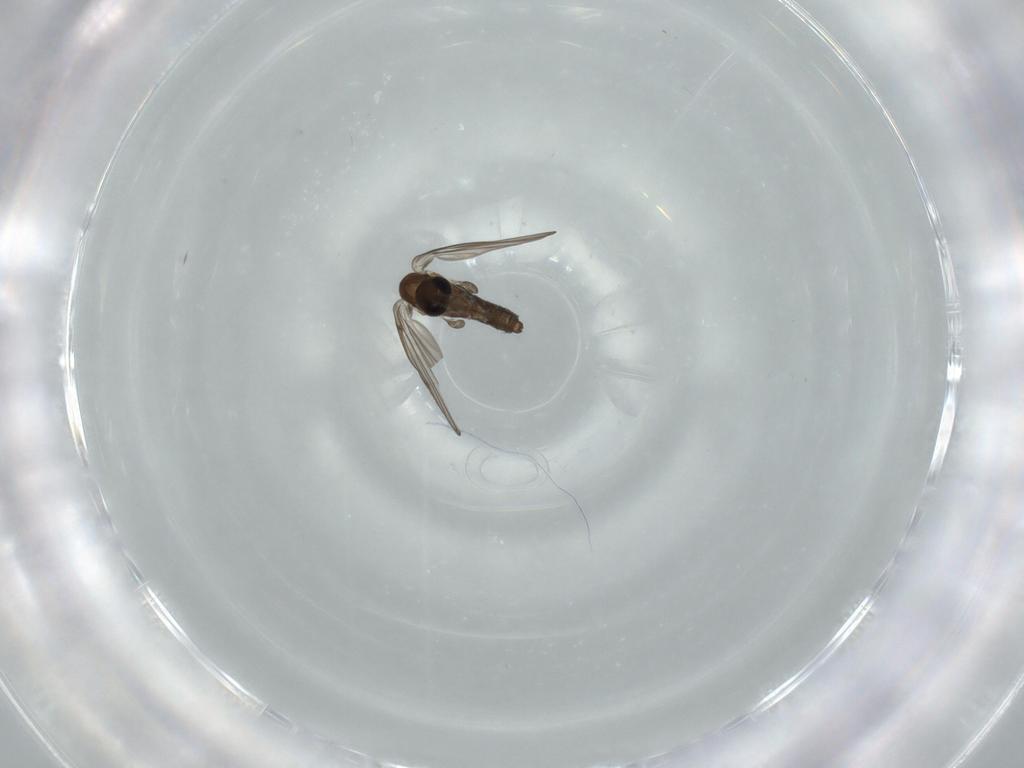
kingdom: Animalia
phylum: Arthropoda
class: Insecta
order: Diptera
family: Psychodidae
